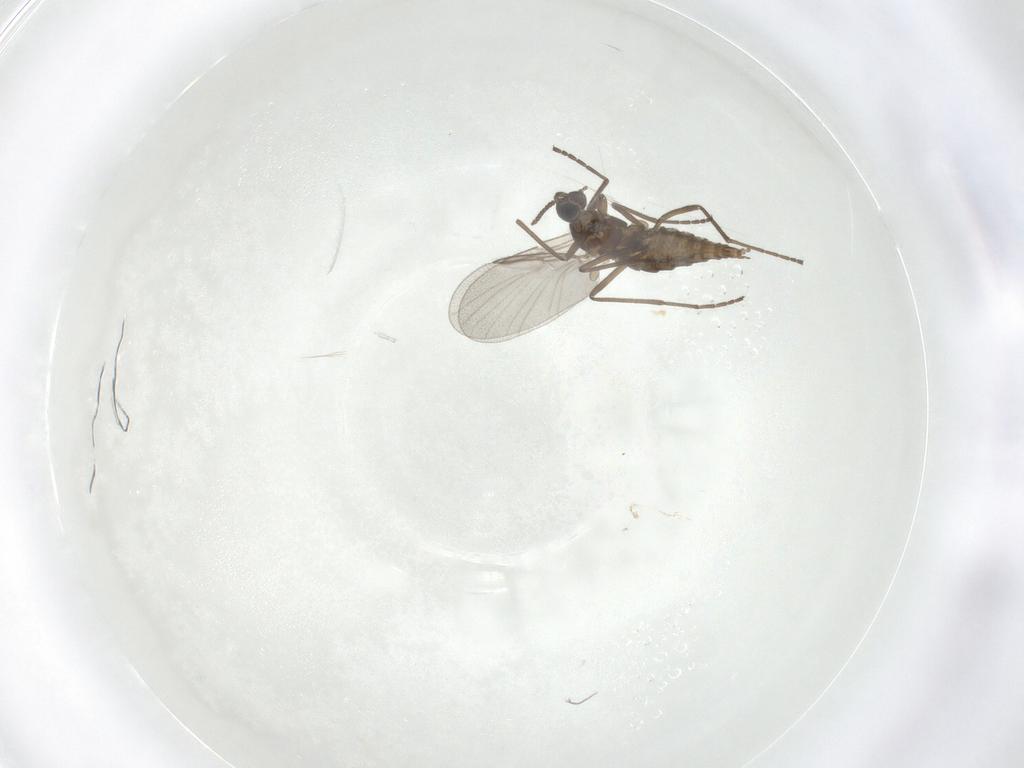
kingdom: Animalia
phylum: Arthropoda
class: Insecta
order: Diptera
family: Cecidomyiidae
